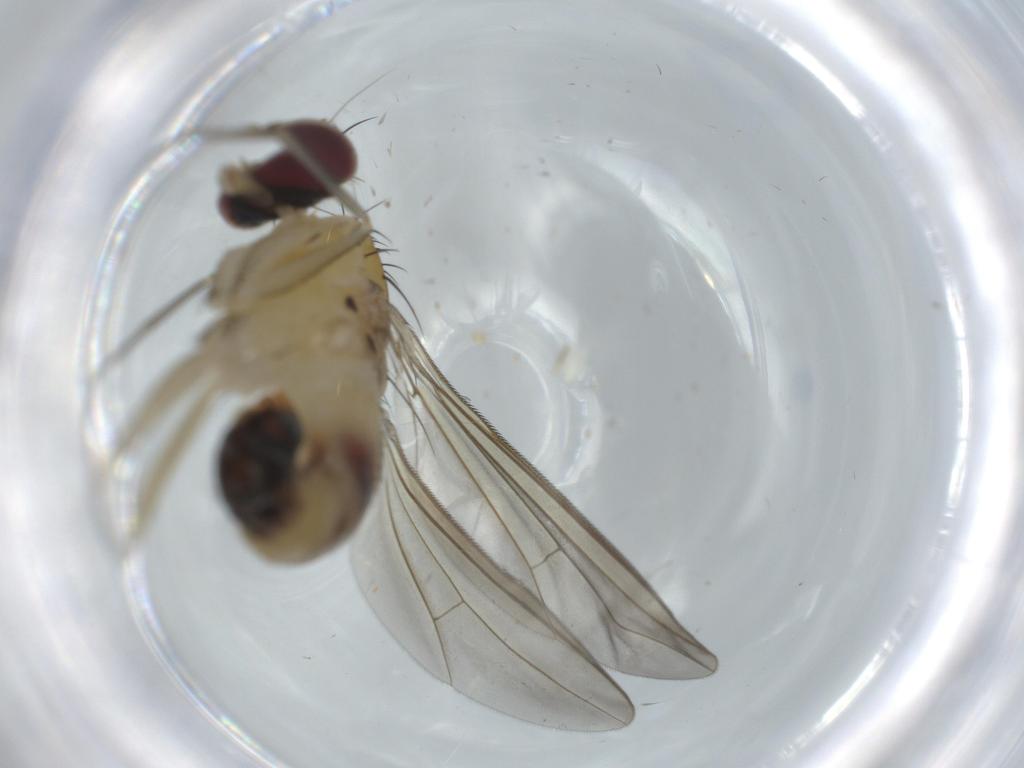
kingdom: Animalia
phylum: Arthropoda
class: Insecta
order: Diptera
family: Dolichopodidae
